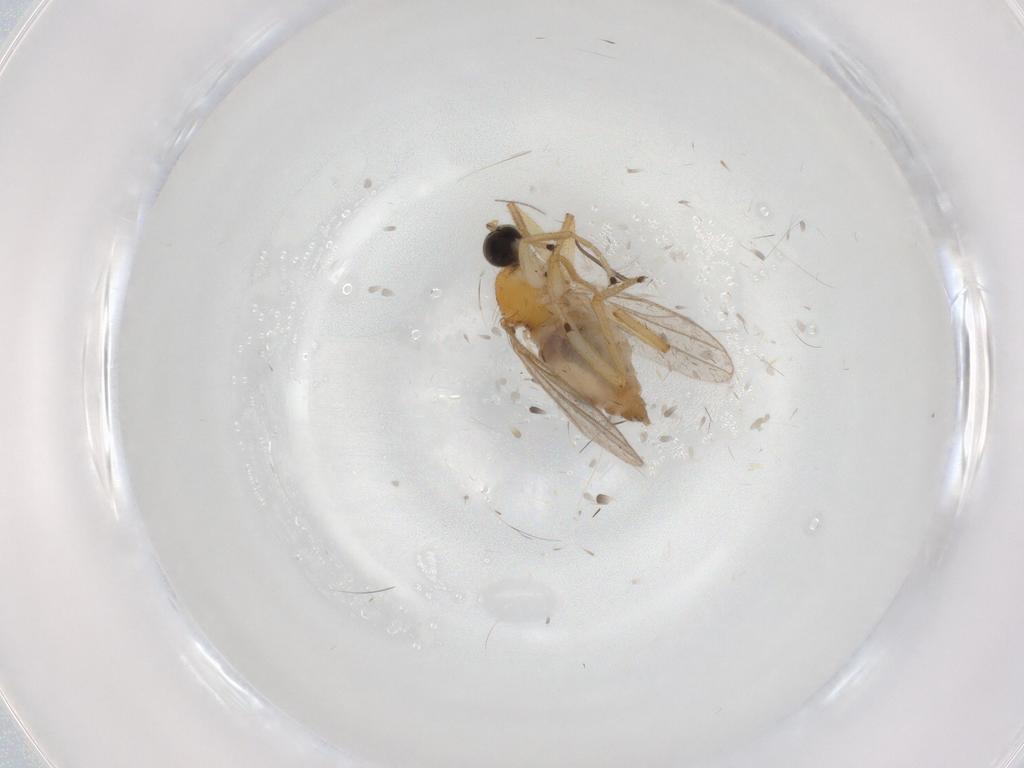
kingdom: Animalia
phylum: Arthropoda
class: Insecta
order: Diptera
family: Hybotidae
